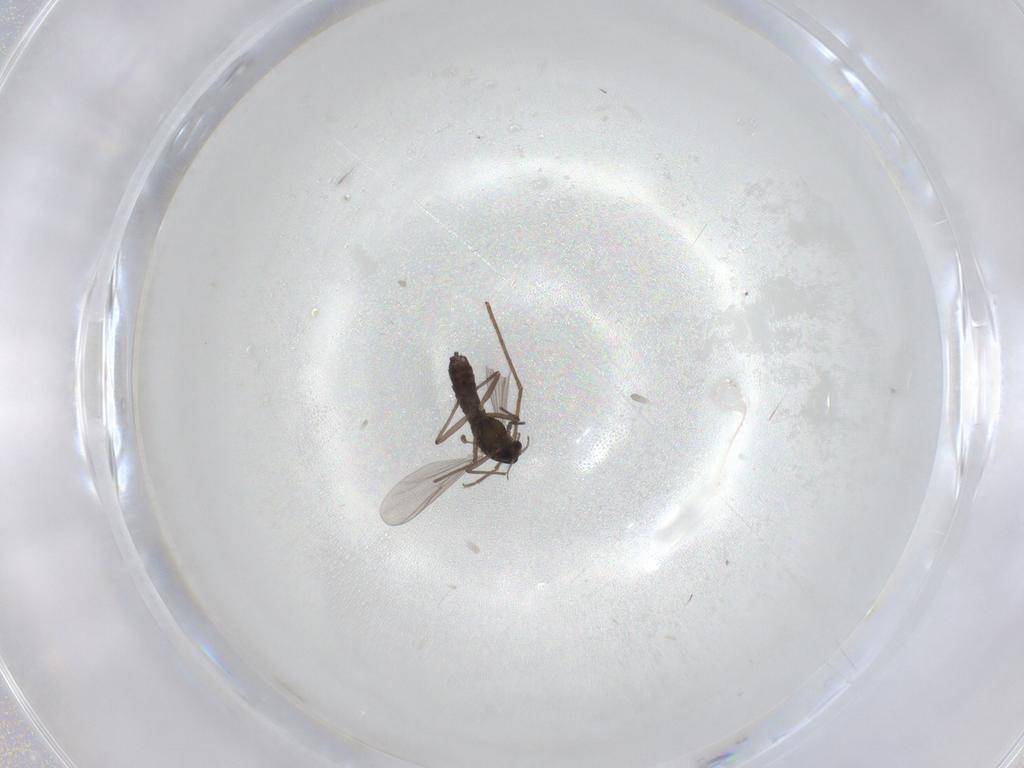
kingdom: Animalia
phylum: Arthropoda
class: Insecta
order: Diptera
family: Chironomidae
